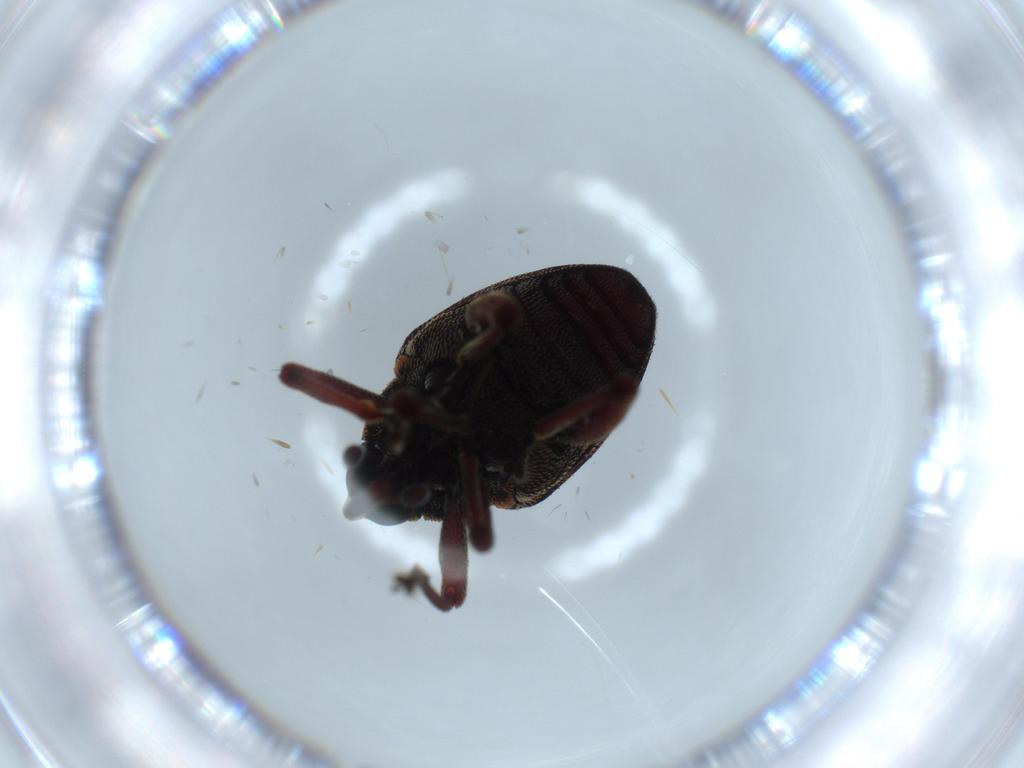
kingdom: Animalia
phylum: Arthropoda
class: Insecta
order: Coleoptera
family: Curculionidae
